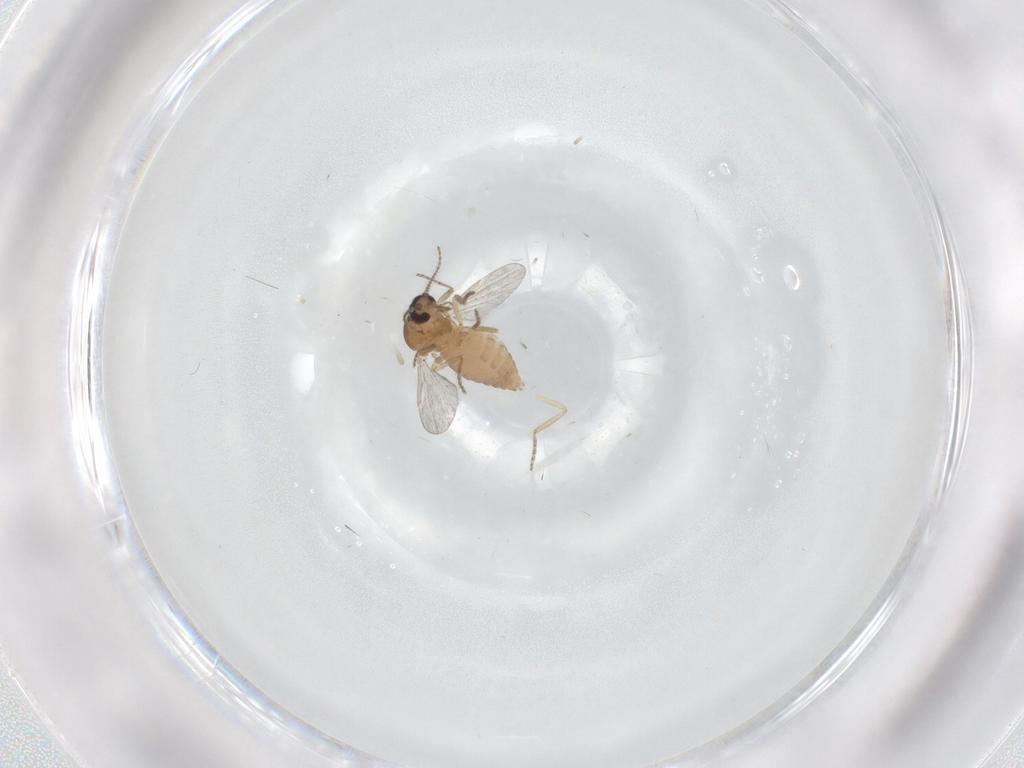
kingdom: Animalia
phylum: Arthropoda
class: Insecta
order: Diptera
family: Ceratopogonidae
